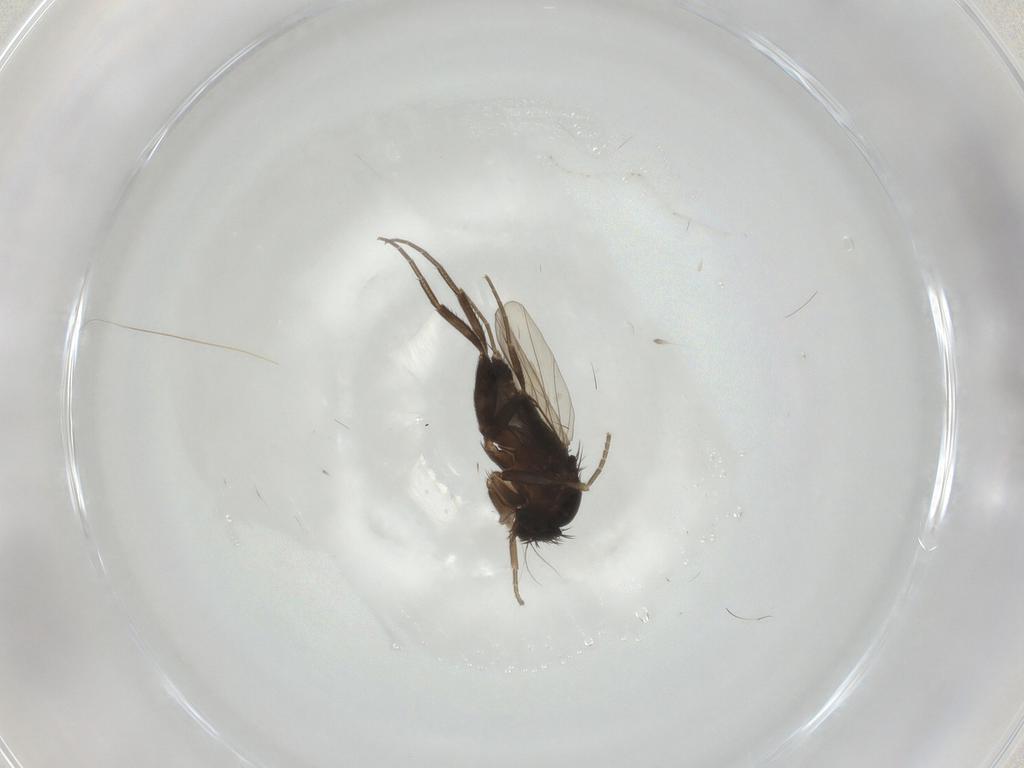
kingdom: Animalia
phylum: Arthropoda
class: Insecta
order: Diptera
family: Phoridae
